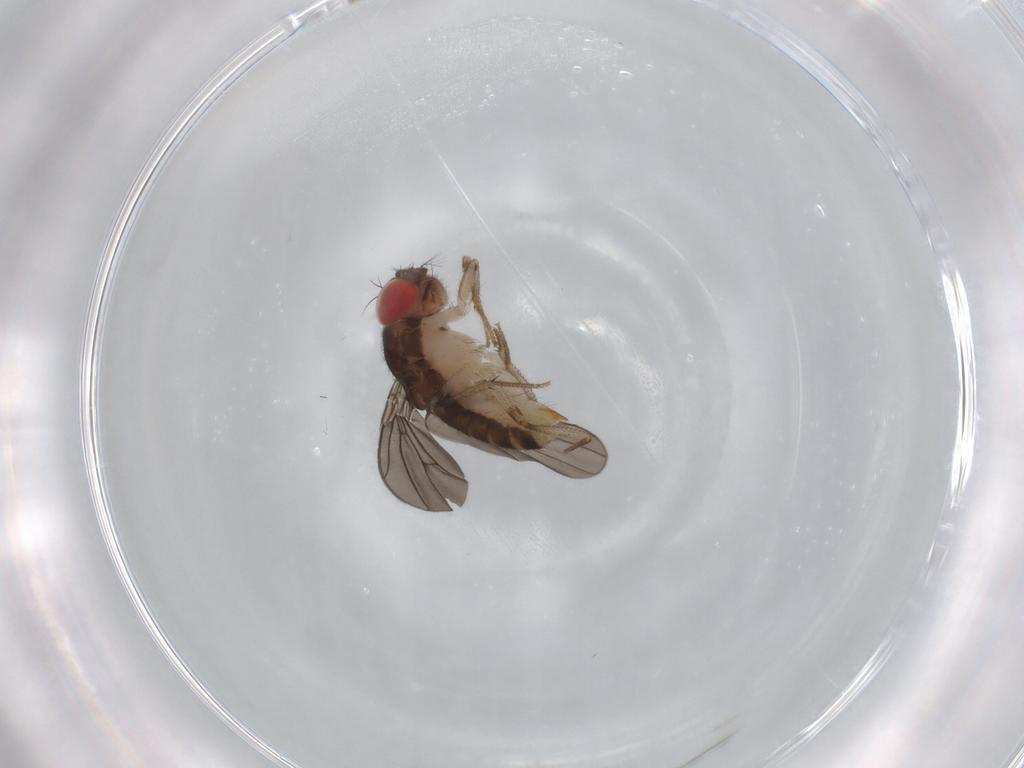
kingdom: Animalia
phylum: Arthropoda
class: Insecta
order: Diptera
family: Drosophilidae
